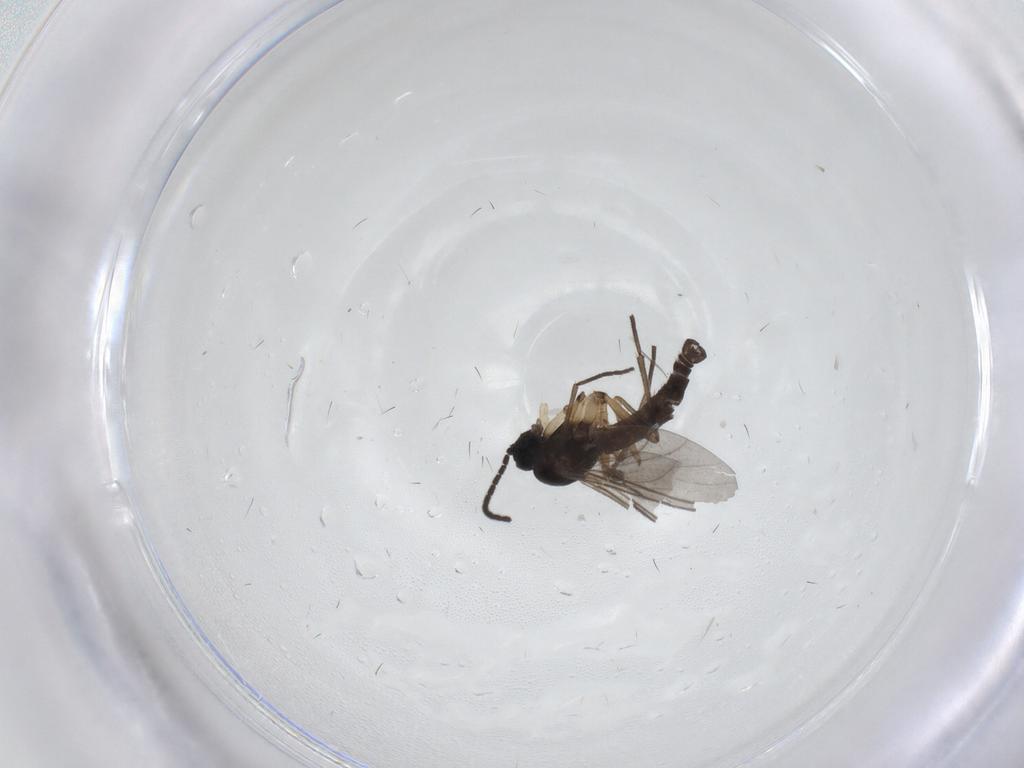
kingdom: Animalia
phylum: Arthropoda
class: Insecta
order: Diptera
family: Sciaridae
